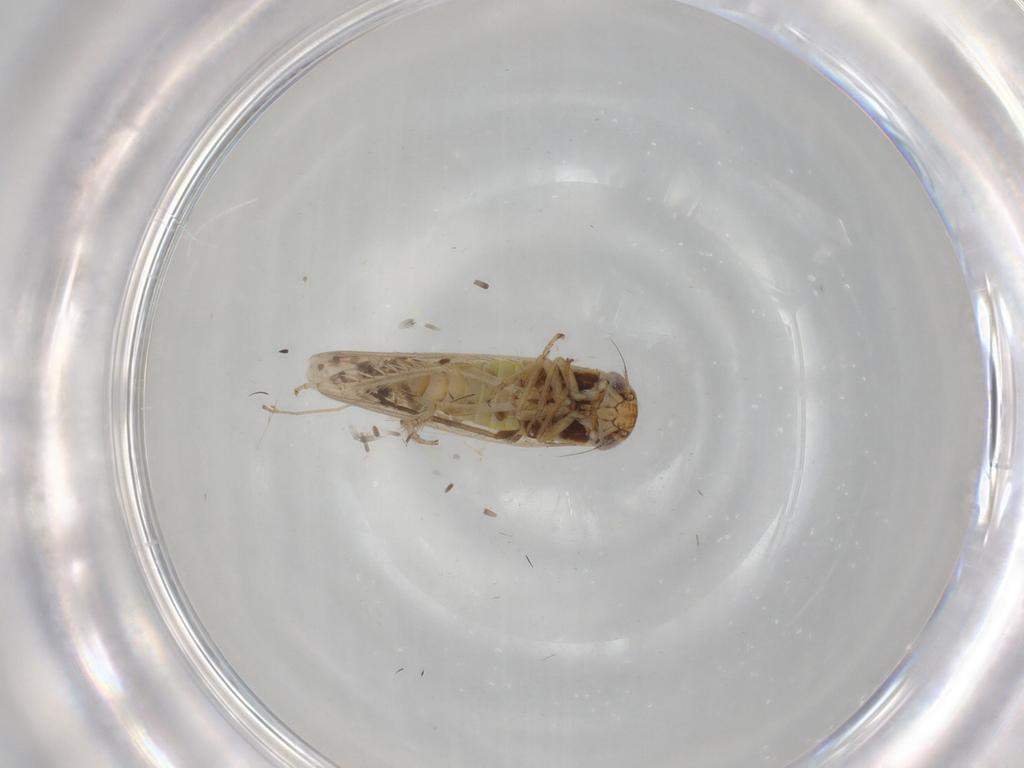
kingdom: Animalia
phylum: Arthropoda
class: Insecta
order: Hemiptera
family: Cicadellidae
